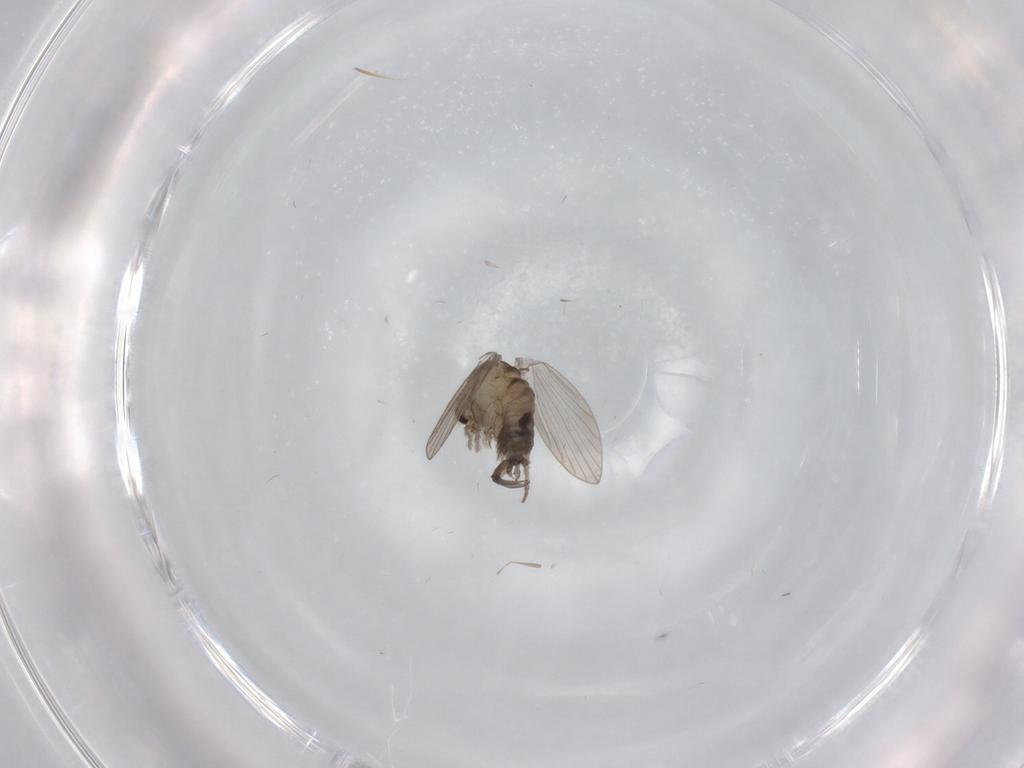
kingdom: Animalia
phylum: Arthropoda
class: Insecta
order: Diptera
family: Psychodidae
